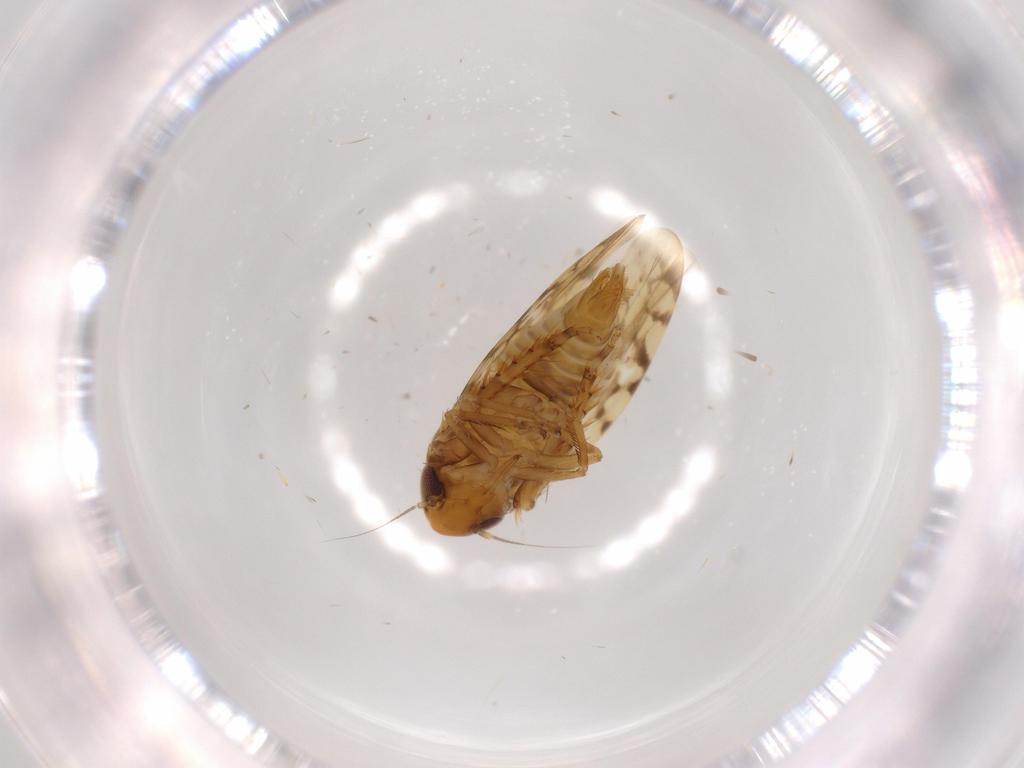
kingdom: Animalia
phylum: Arthropoda
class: Insecta
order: Hemiptera
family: Cicadellidae
